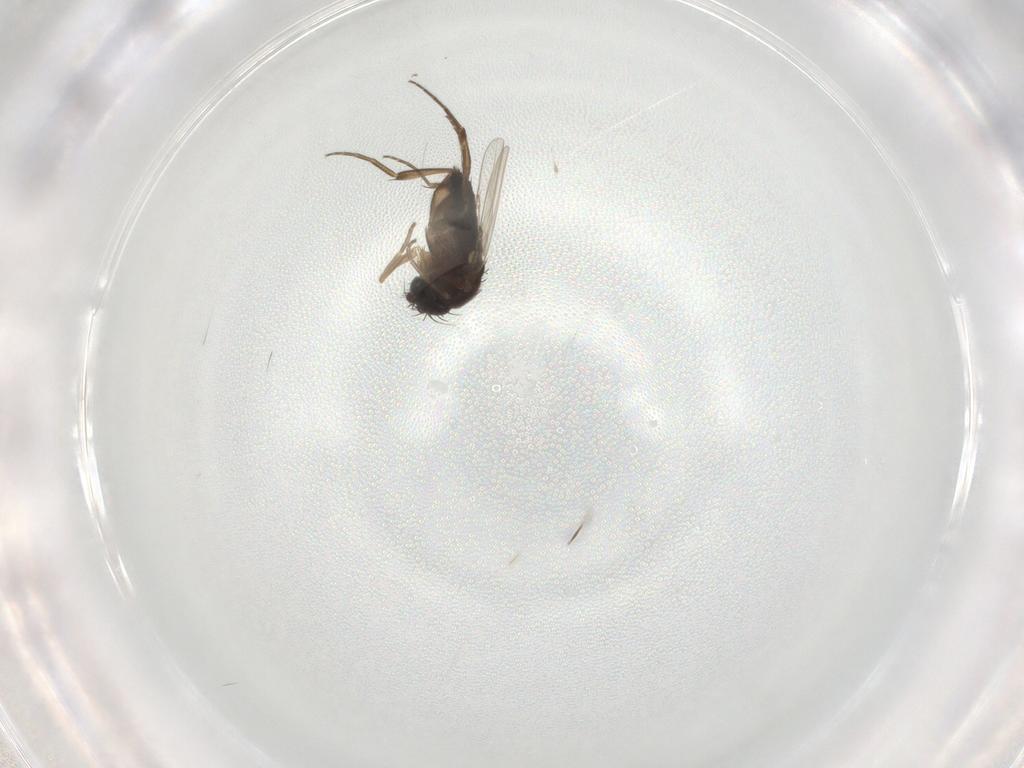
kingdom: Animalia
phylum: Arthropoda
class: Insecta
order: Diptera
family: Phoridae
